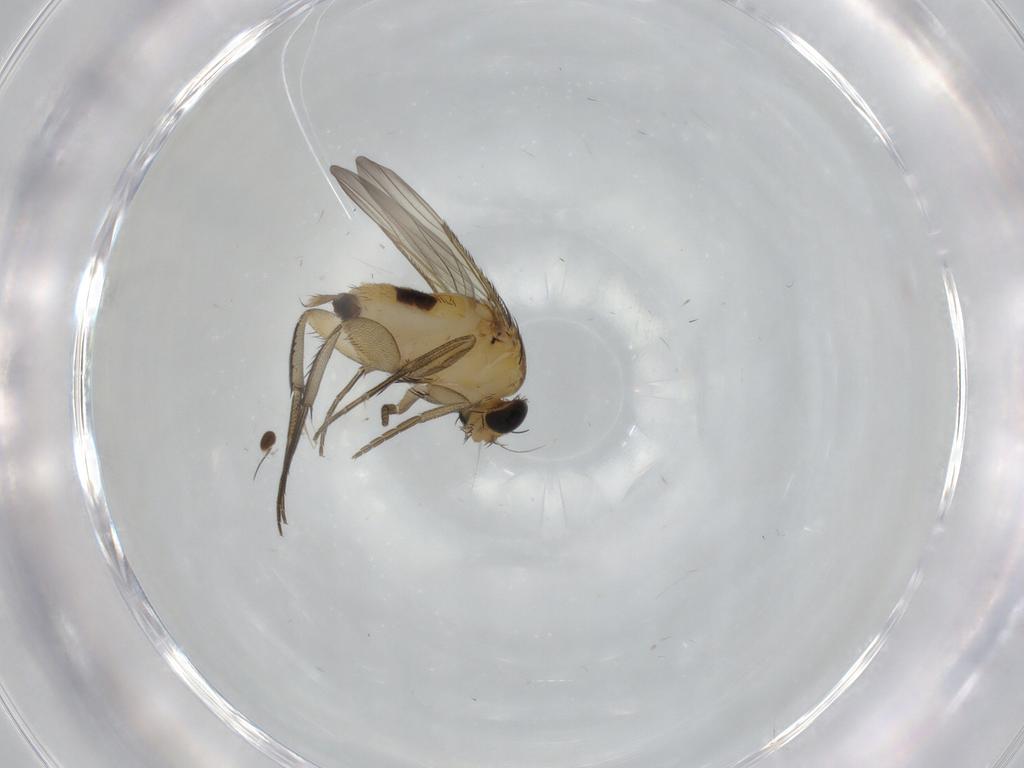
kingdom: Animalia
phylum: Arthropoda
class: Insecta
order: Diptera
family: Phoridae
